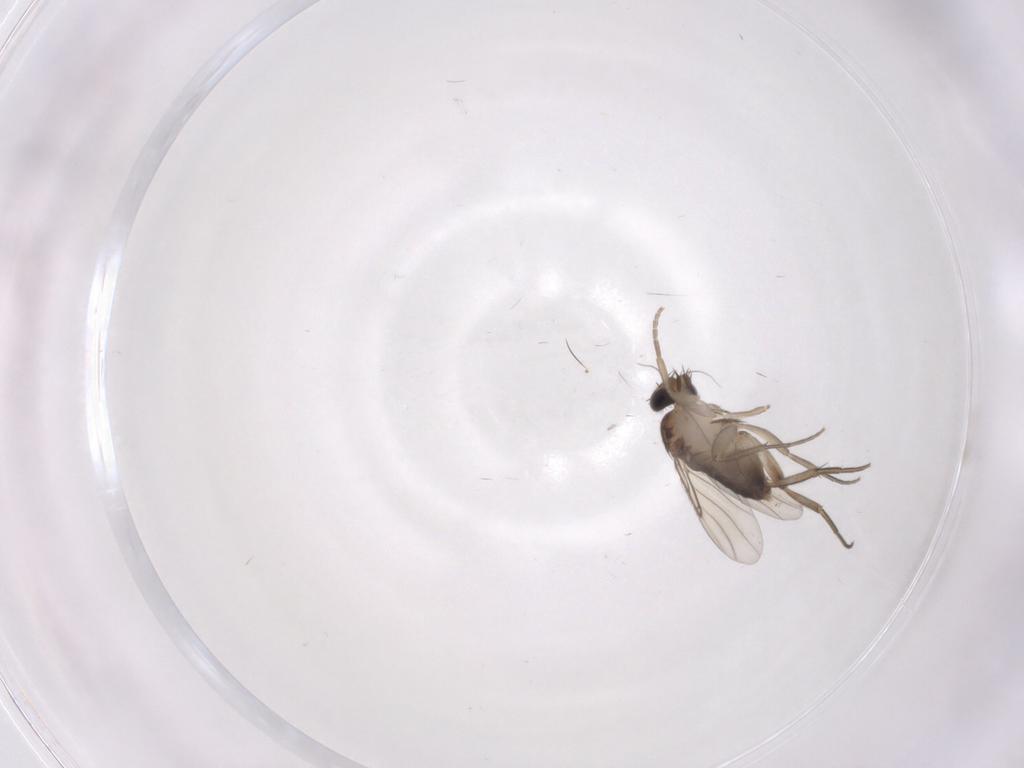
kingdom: Animalia
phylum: Arthropoda
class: Insecta
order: Diptera
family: Phoridae
